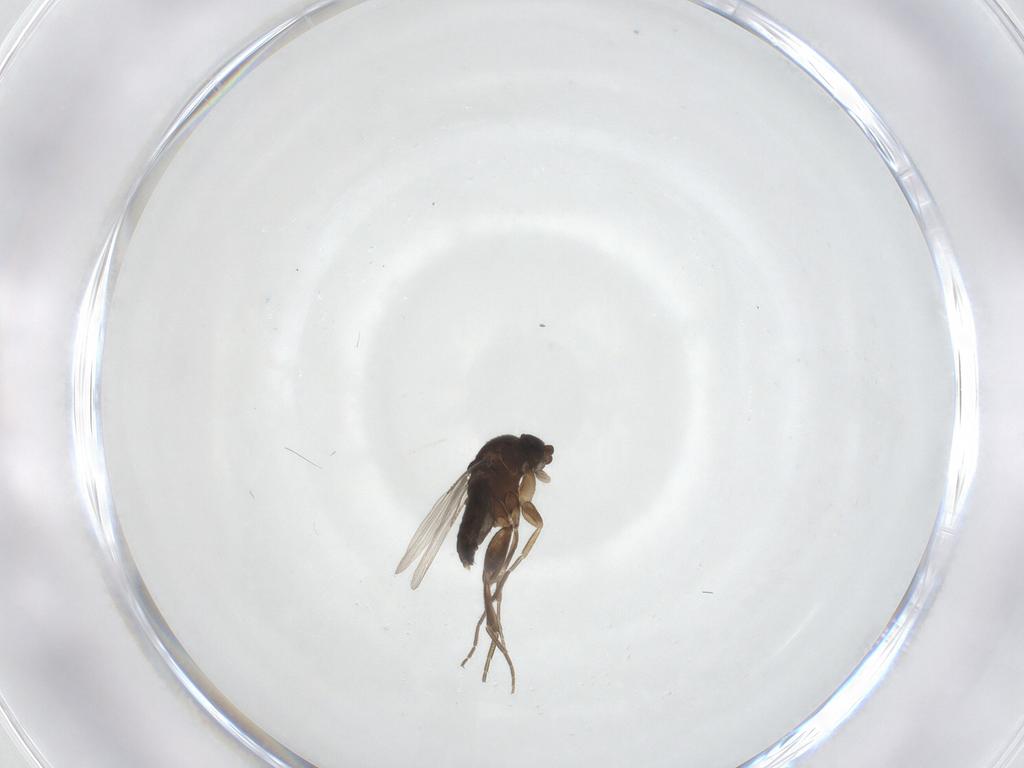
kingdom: Animalia
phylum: Arthropoda
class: Insecta
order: Diptera
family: Phoridae
